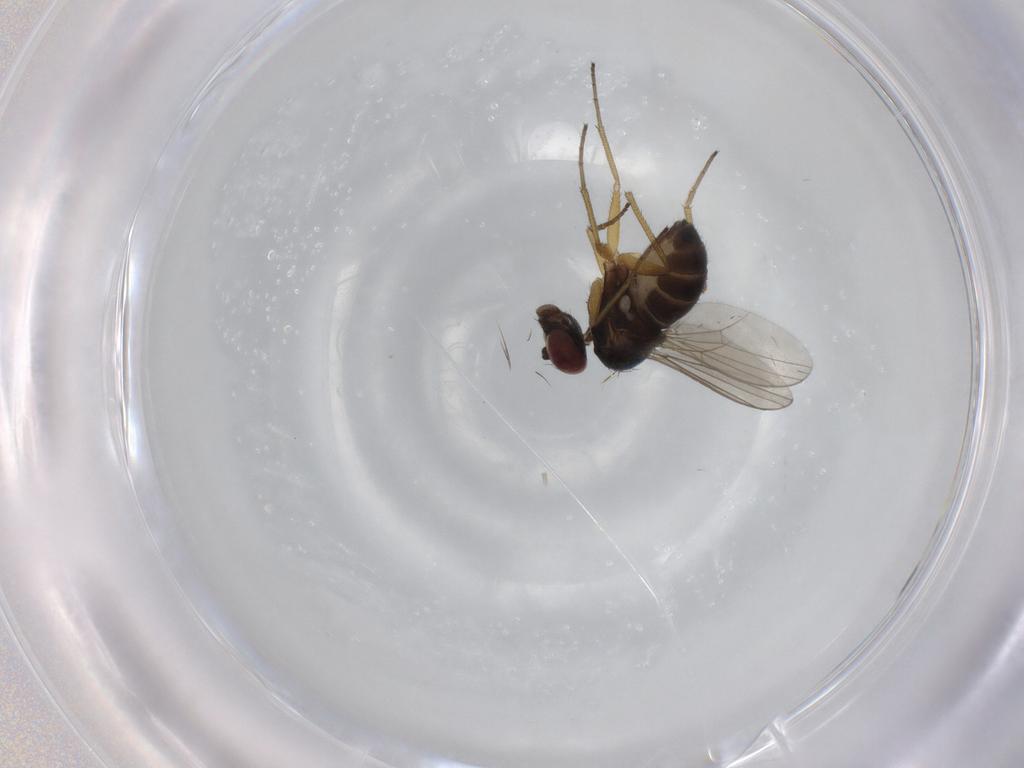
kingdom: Animalia
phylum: Arthropoda
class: Insecta
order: Diptera
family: Dolichopodidae
